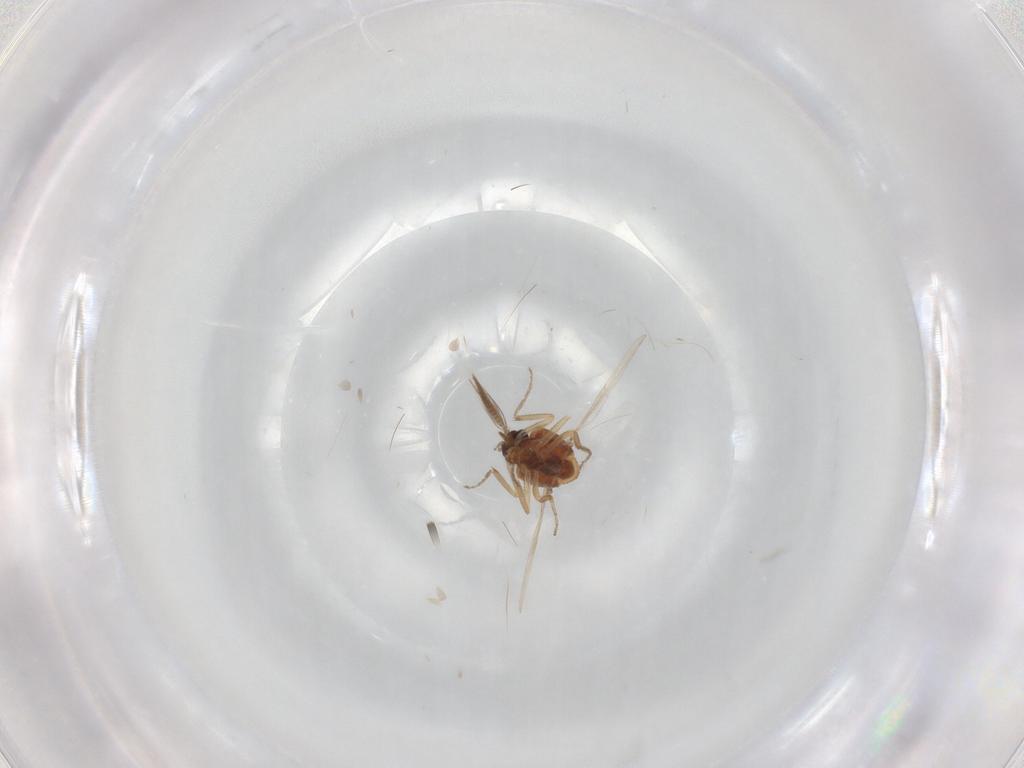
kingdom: Animalia
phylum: Arthropoda
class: Insecta
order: Diptera
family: Ceratopogonidae
